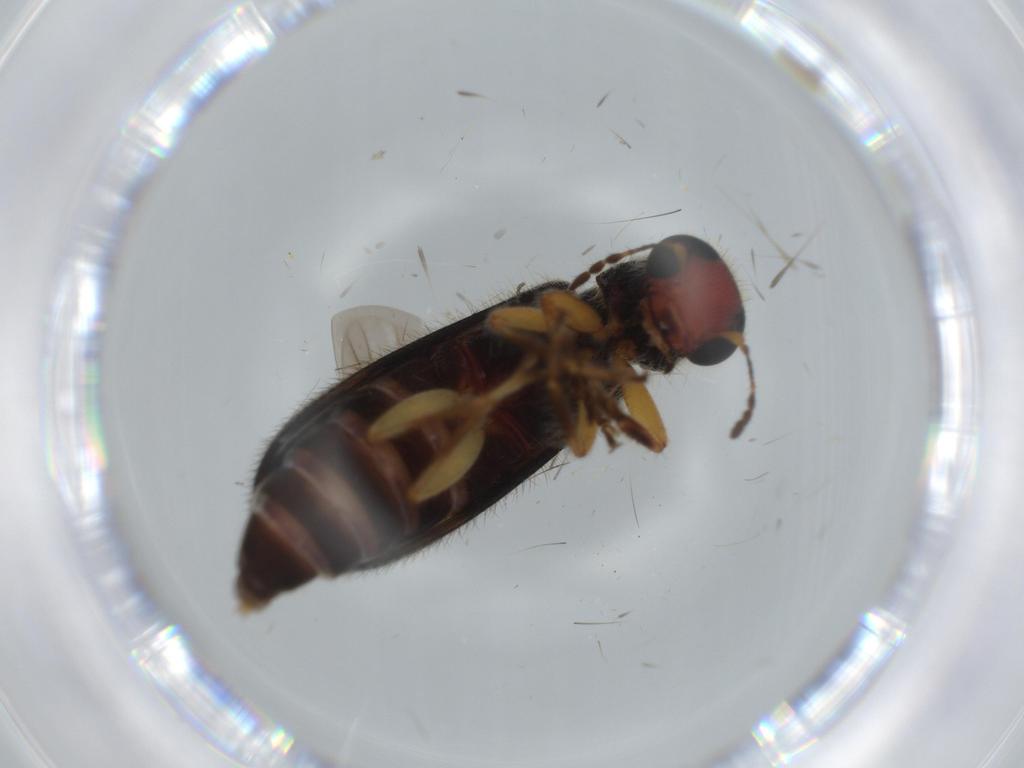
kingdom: Animalia
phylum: Arthropoda
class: Insecta
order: Coleoptera
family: Cleridae
